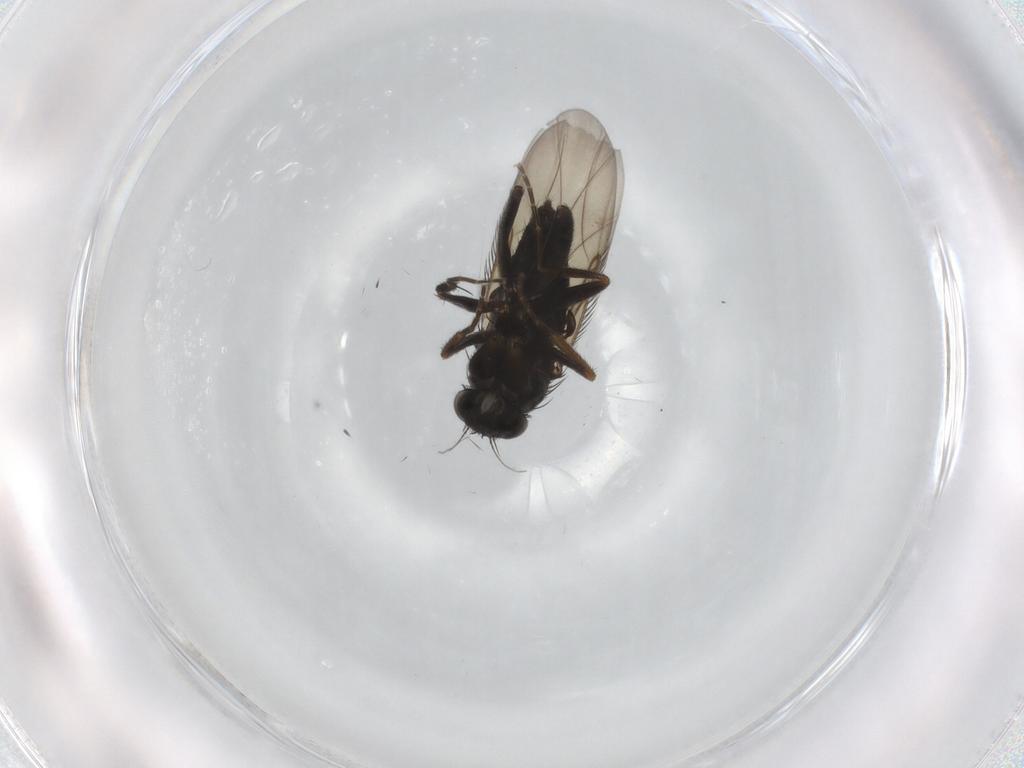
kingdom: Animalia
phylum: Arthropoda
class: Insecta
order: Diptera
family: Phoridae
